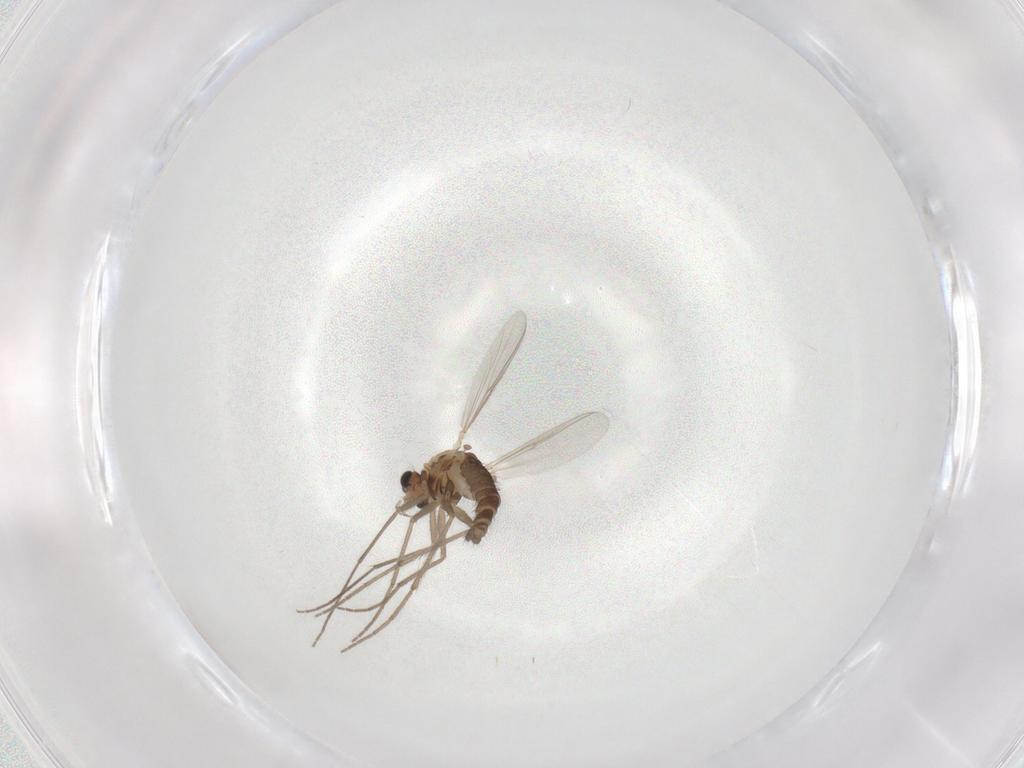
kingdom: Animalia
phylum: Arthropoda
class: Insecta
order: Diptera
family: Chironomidae
